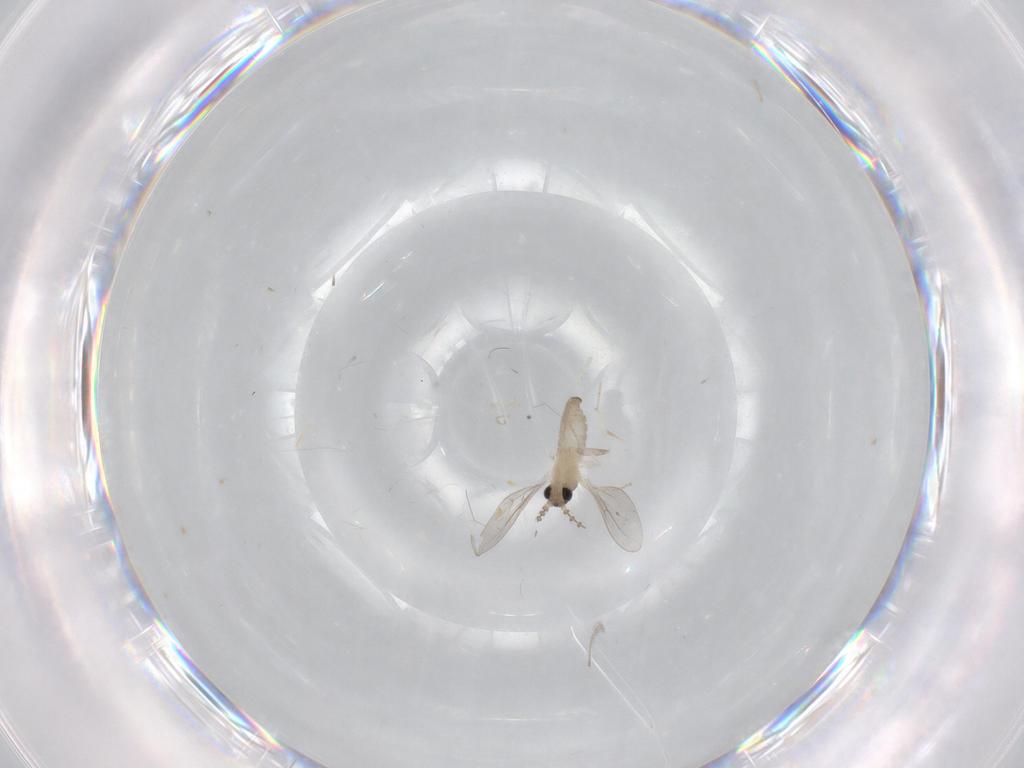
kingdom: Animalia
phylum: Arthropoda
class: Insecta
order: Diptera
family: Cecidomyiidae
